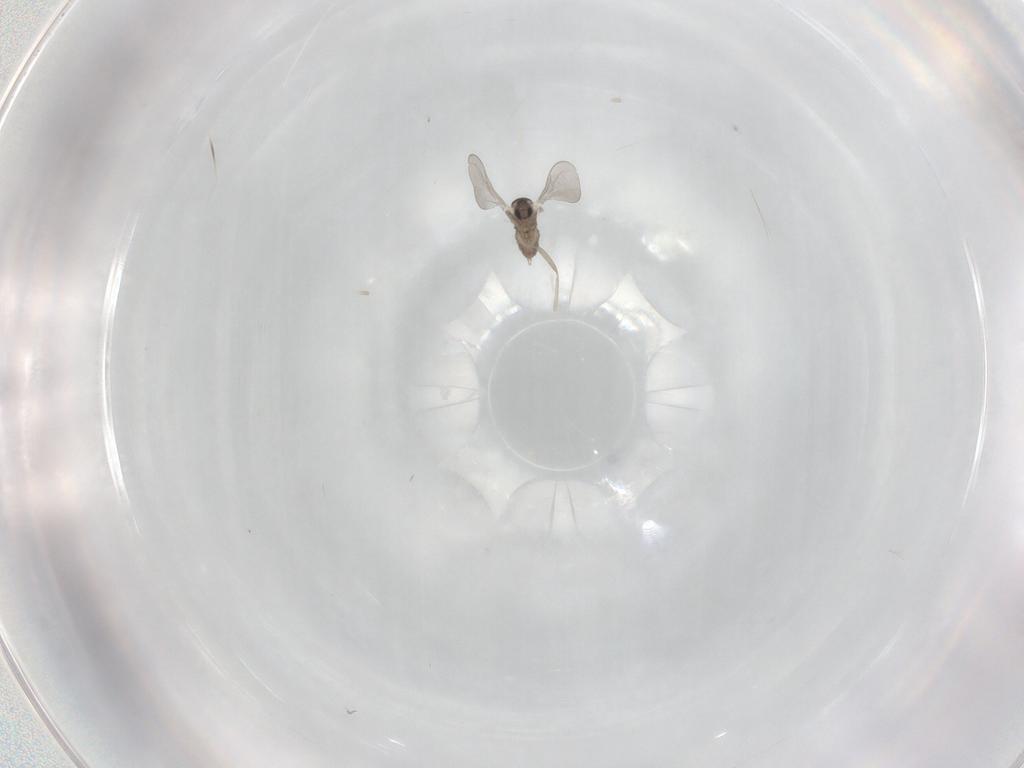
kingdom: Animalia
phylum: Arthropoda
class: Insecta
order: Diptera
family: Cecidomyiidae
